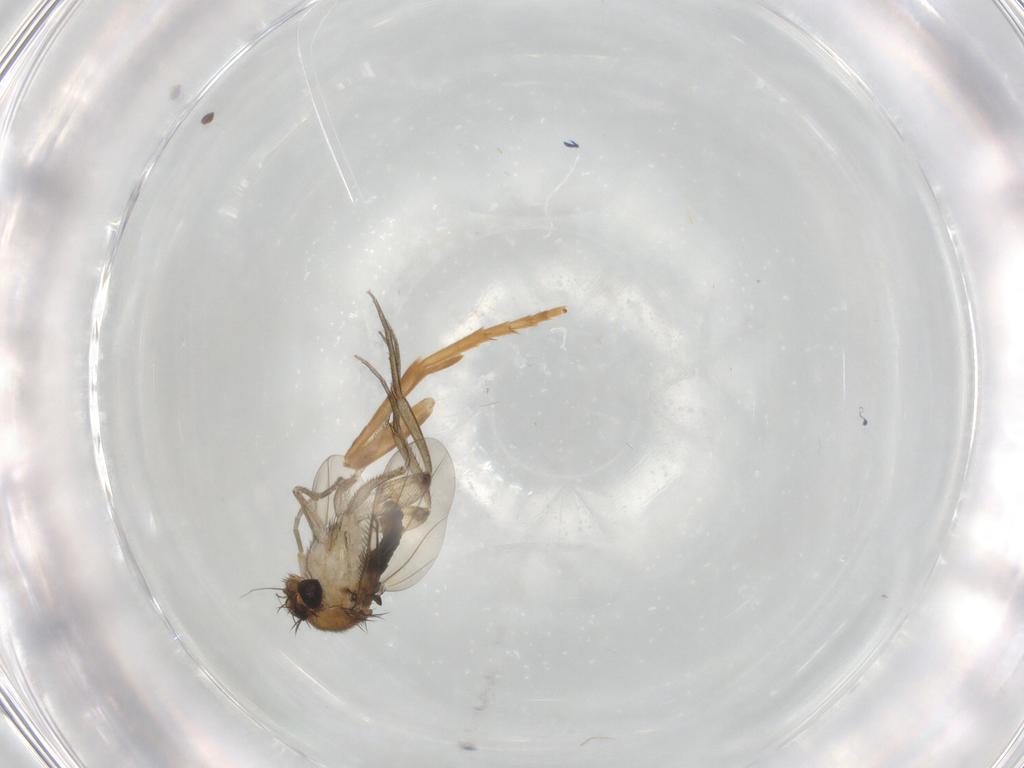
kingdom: Animalia
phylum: Arthropoda
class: Insecta
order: Diptera
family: Phoridae
